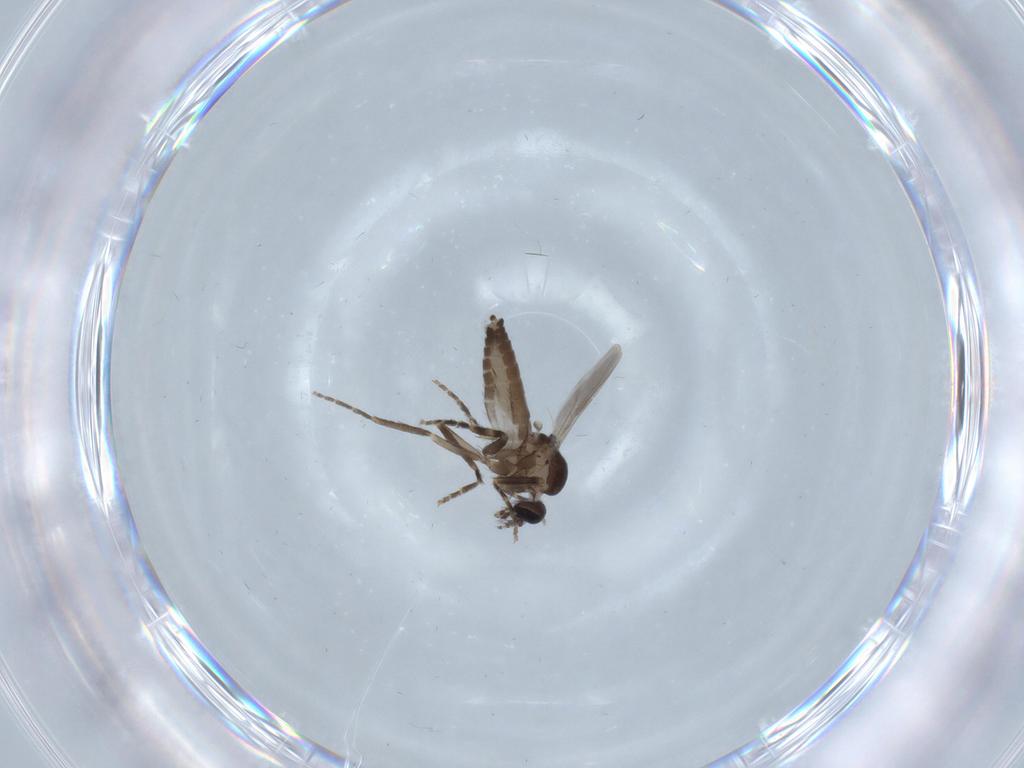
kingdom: Animalia
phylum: Arthropoda
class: Insecta
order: Diptera
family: Ceratopogonidae
